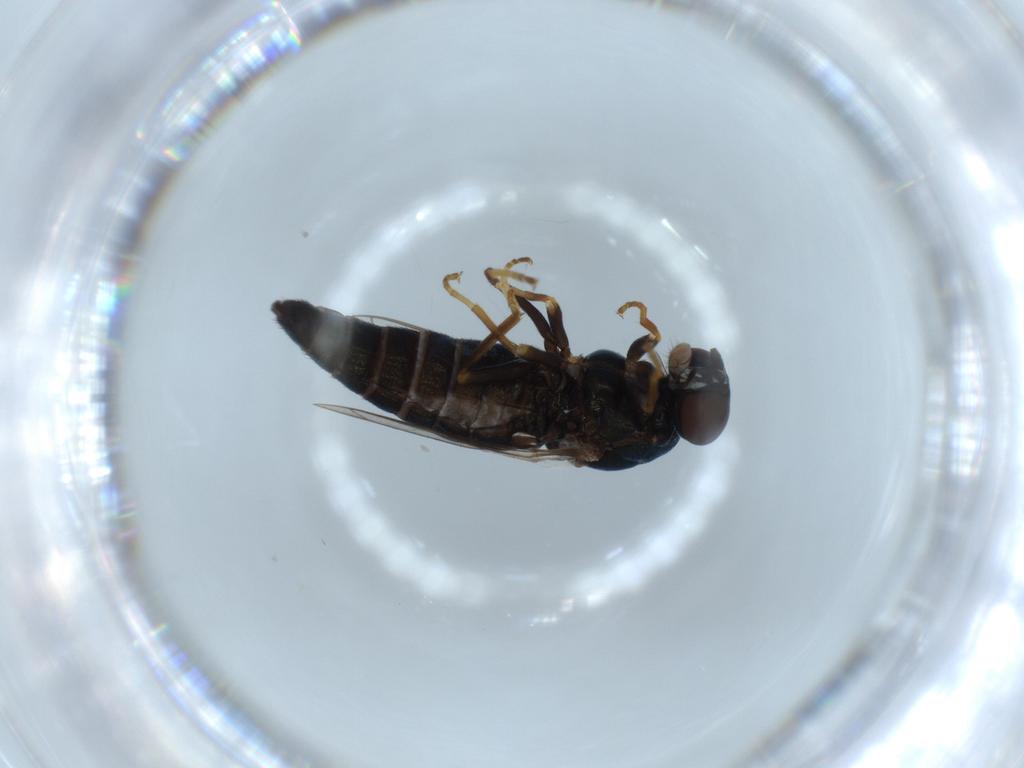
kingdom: Animalia
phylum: Arthropoda
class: Insecta
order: Diptera
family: Scenopinidae
